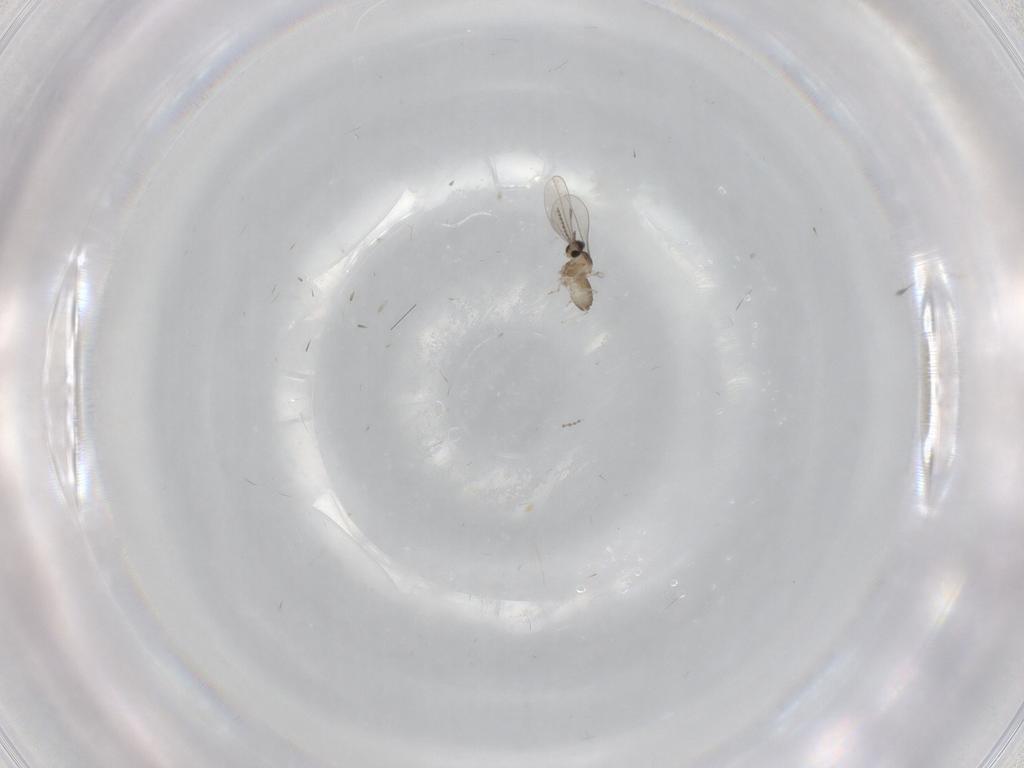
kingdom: Animalia
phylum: Arthropoda
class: Insecta
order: Diptera
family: Cecidomyiidae
